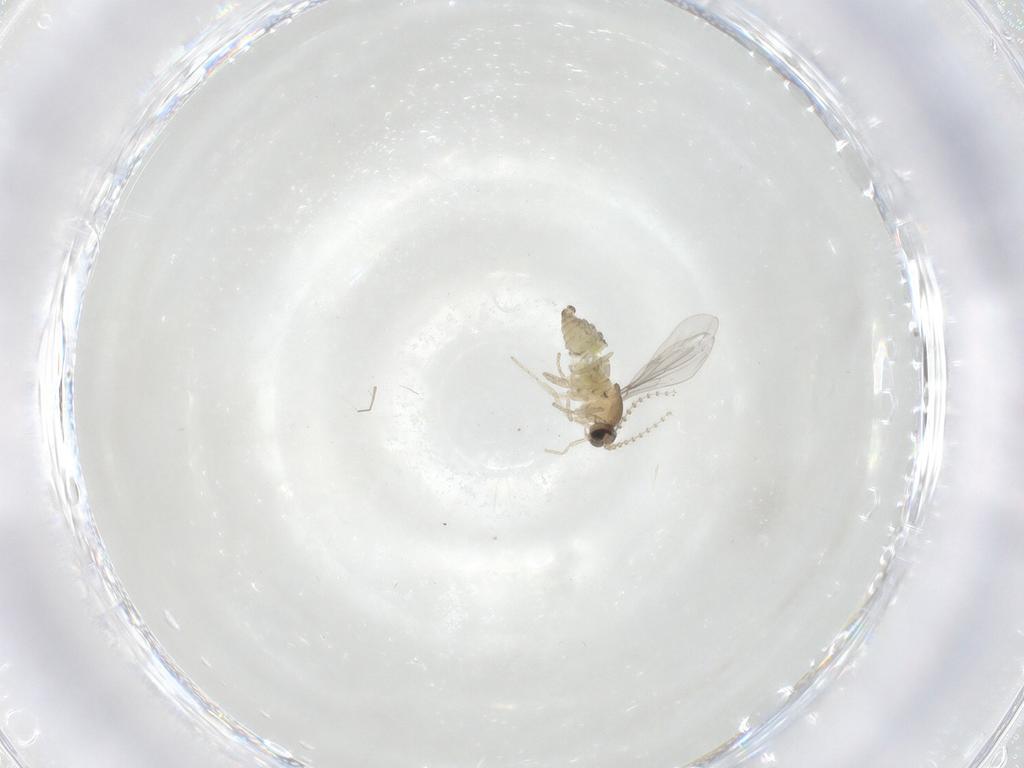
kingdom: Animalia
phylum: Arthropoda
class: Insecta
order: Diptera
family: Cecidomyiidae
